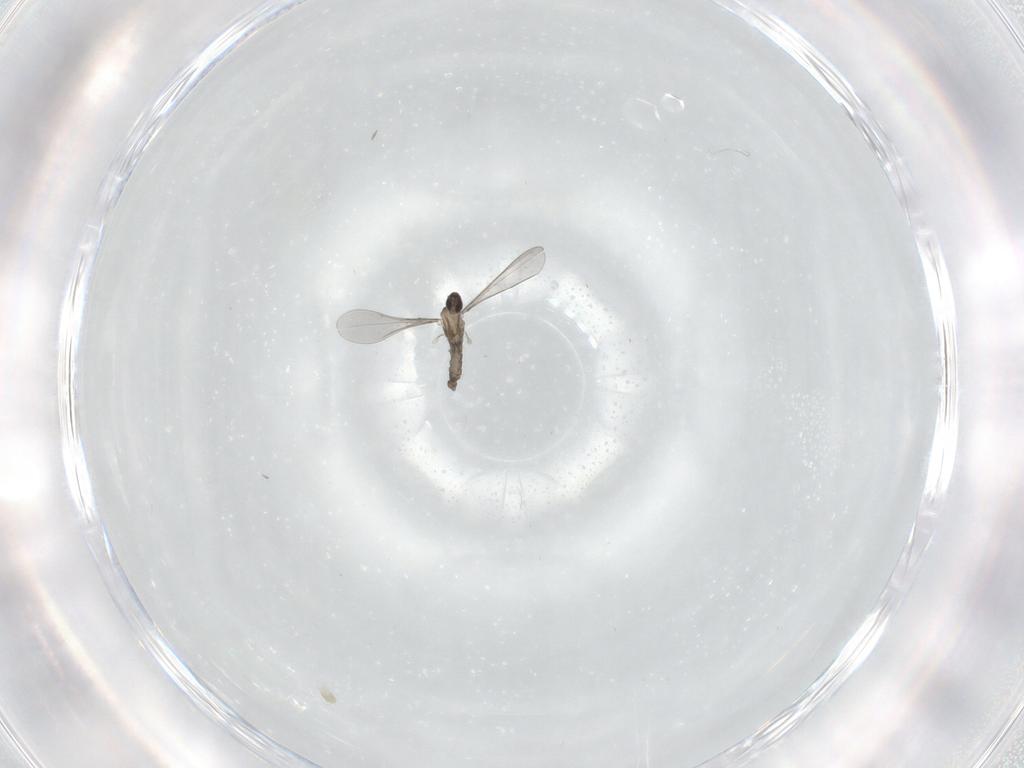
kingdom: Animalia
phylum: Arthropoda
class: Insecta
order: Diptera
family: Cecidomyiidae
